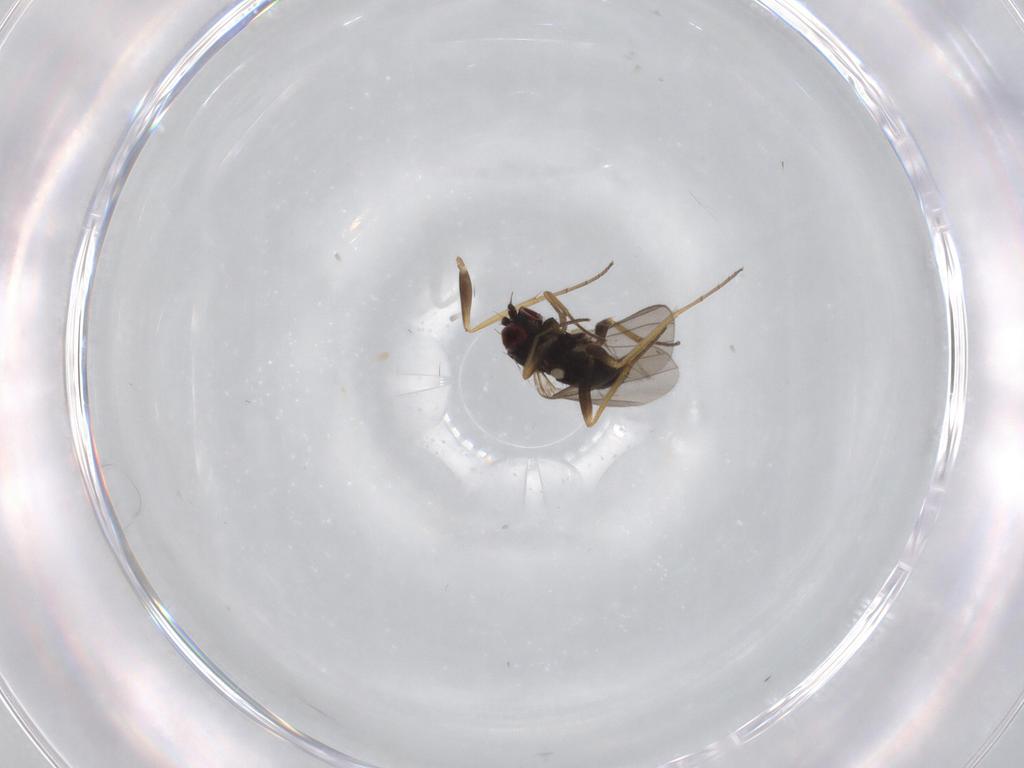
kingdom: Animalia
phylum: Arthropoda
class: Insecta
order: Diptera
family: Dolichopodidae
